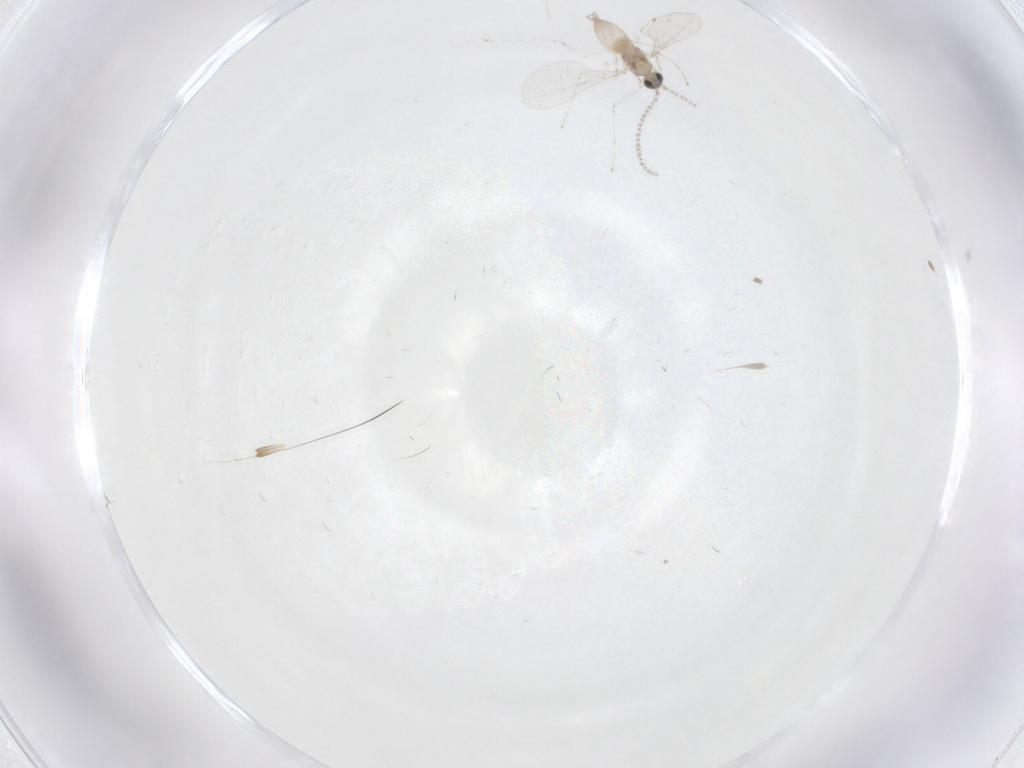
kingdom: Animalia
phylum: Arthropoda
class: Insecta
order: Diptera
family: Cecidomyiidae
